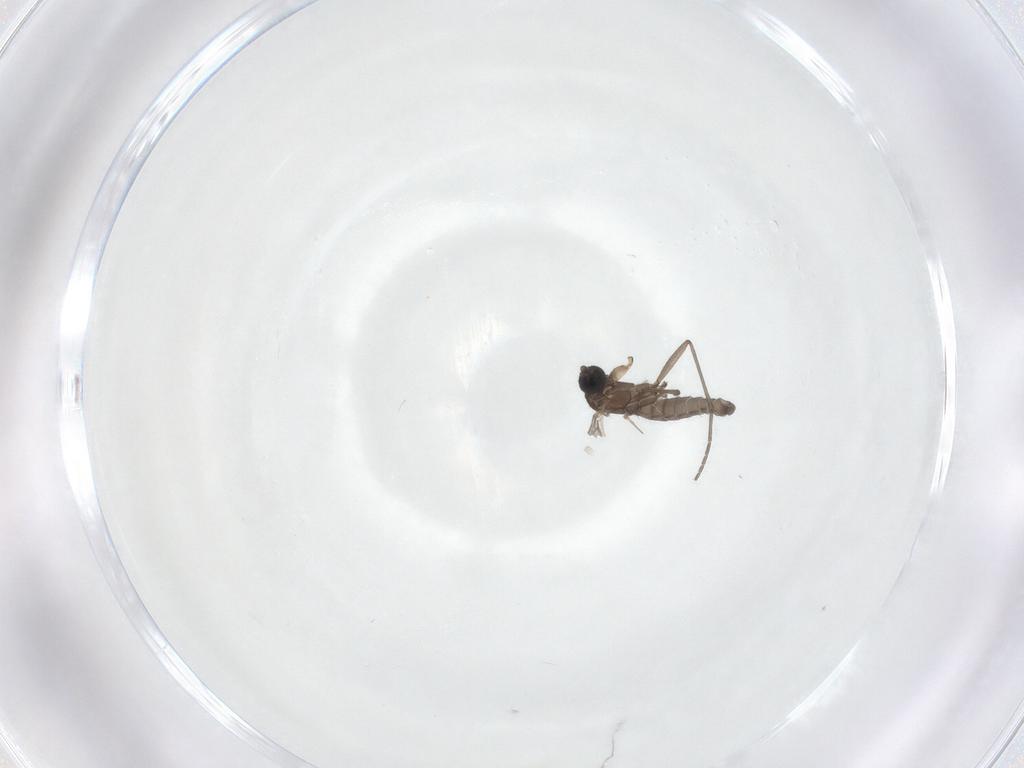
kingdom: Animalia
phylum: Arthropoda
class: Insecta
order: Diptera
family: Sciaridae
